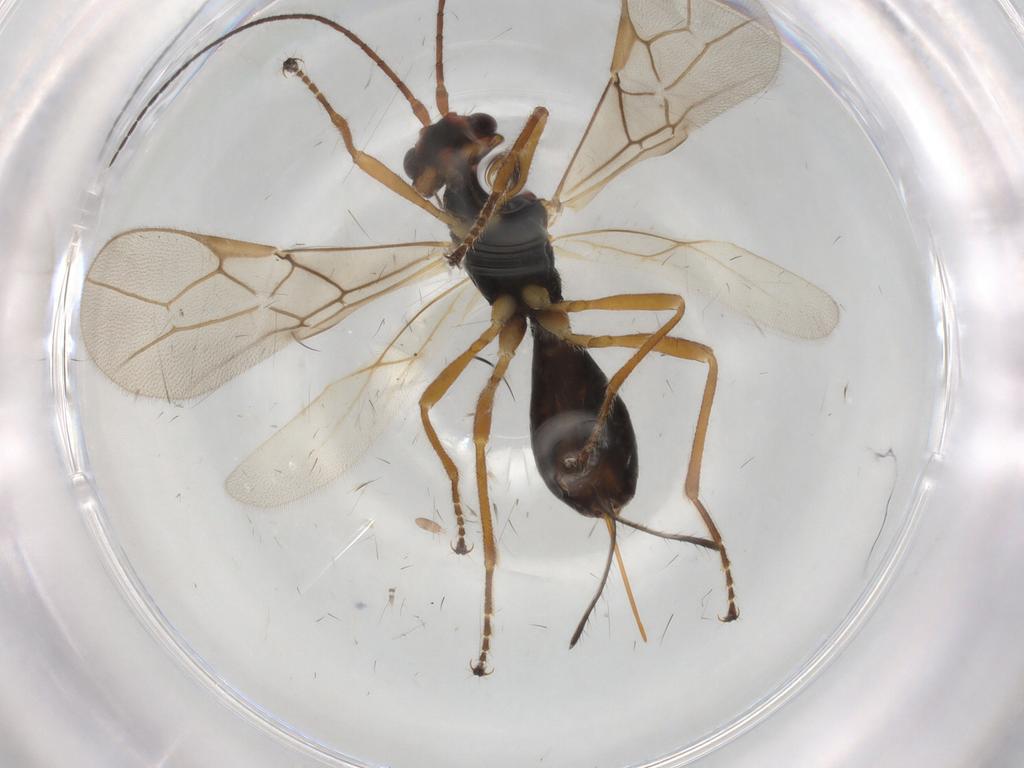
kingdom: Animalia
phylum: Arthropoda
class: Insecta
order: Hymenoptera
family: Braconidae
